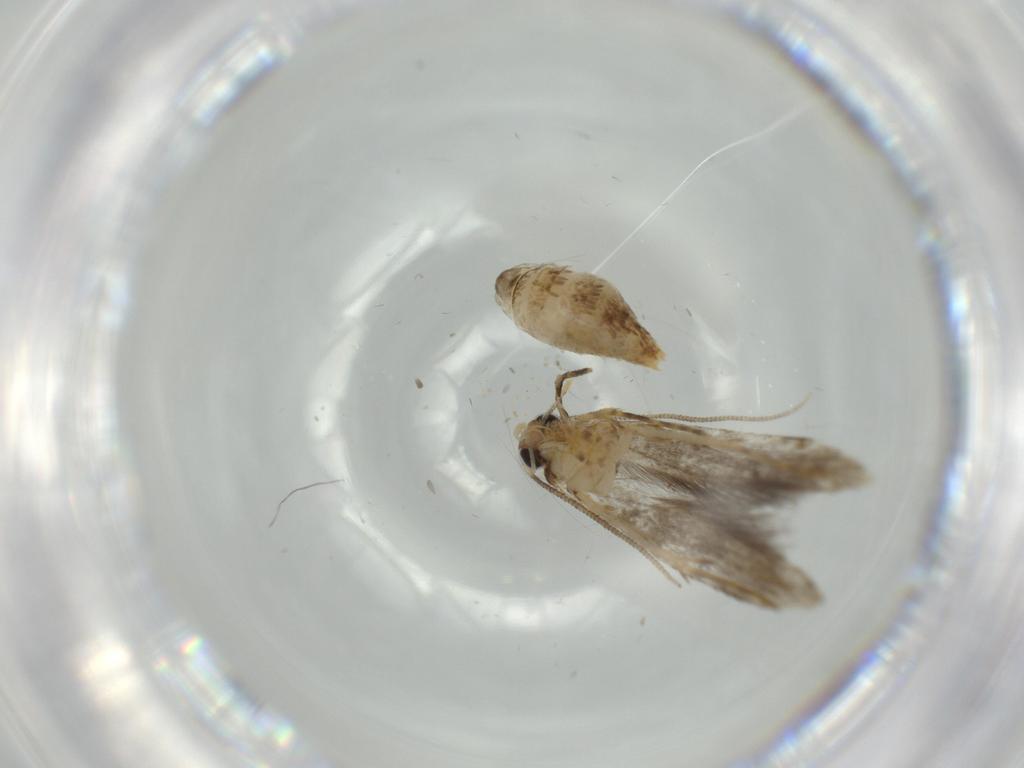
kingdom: Animalia
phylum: Arthropoda
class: Insecta
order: Lepidoptera
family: Tineidae
